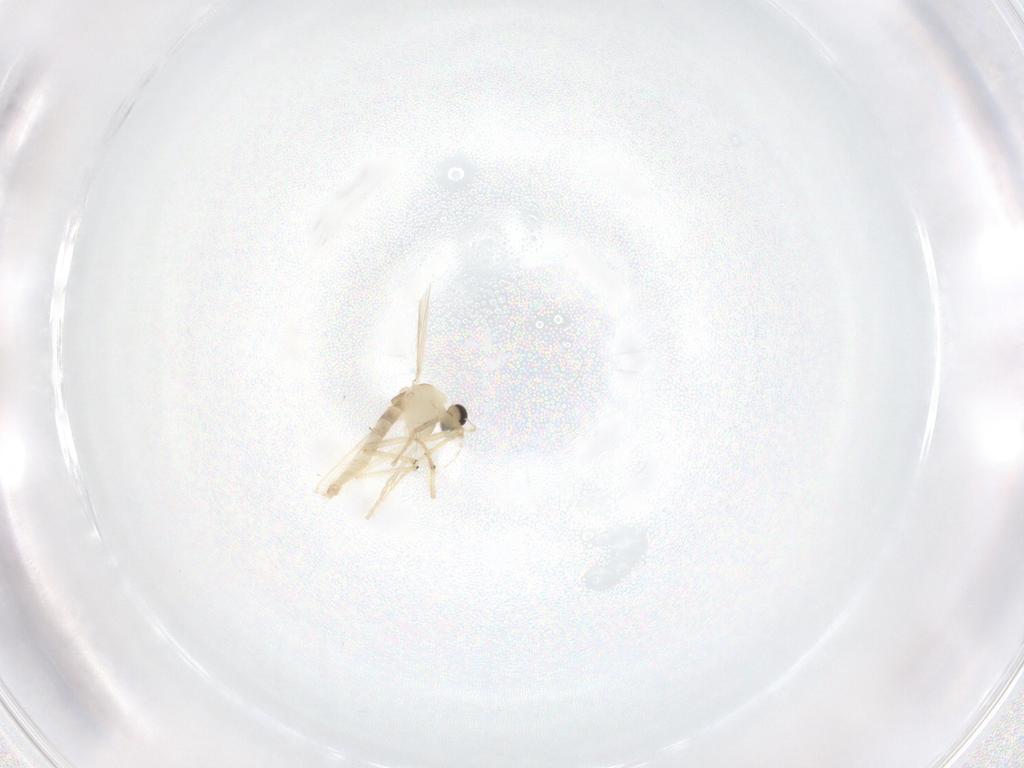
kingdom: Animalia
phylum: Arthropoda
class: Insecta
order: Diptera
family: Chironomidae
